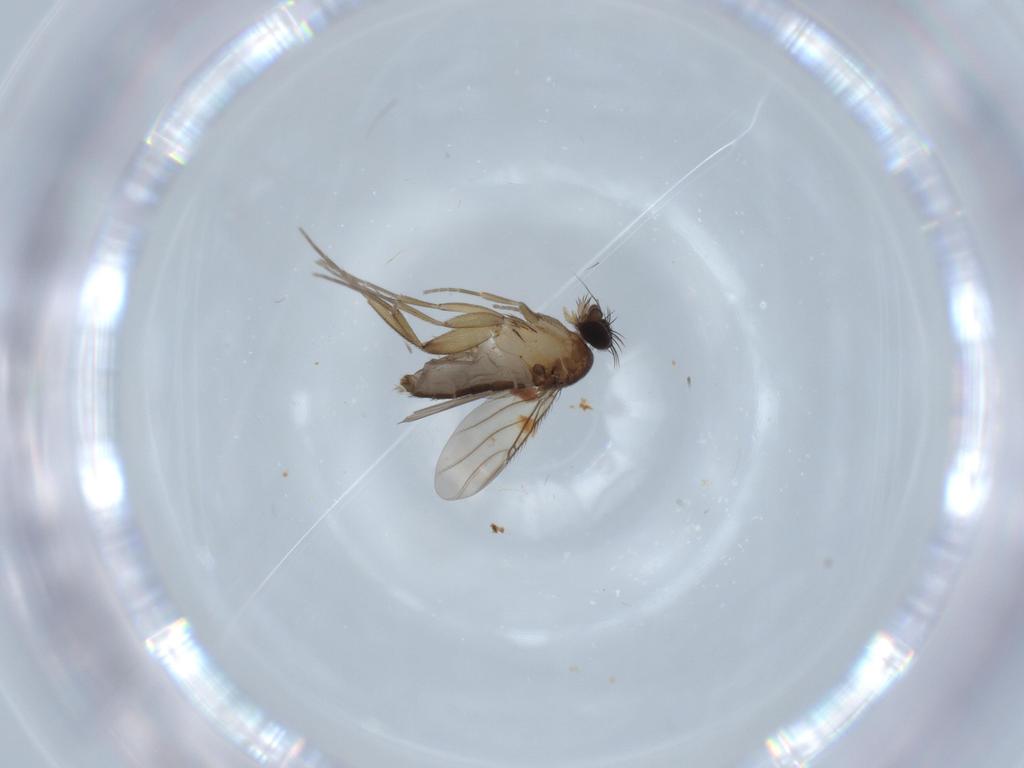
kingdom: Animalia
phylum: Arthropoda
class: Insecta
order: Diptera
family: Phoridae
